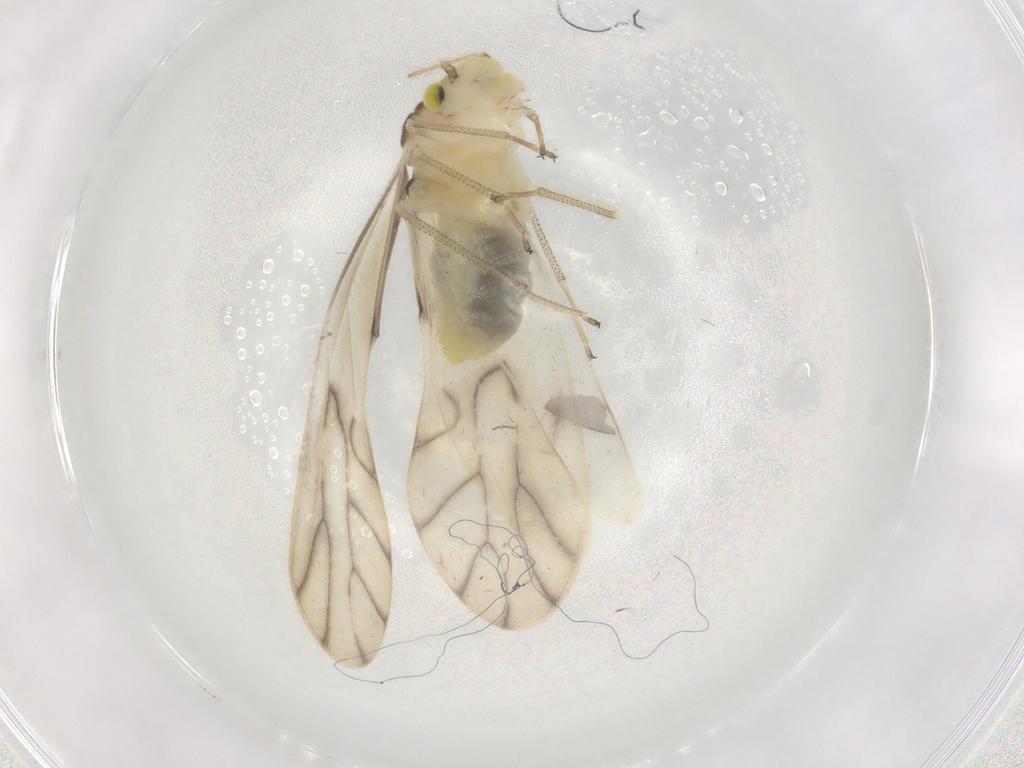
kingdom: Animalia
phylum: Arthropoda
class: Insecta
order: Psocodea
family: Caeciliusidae
